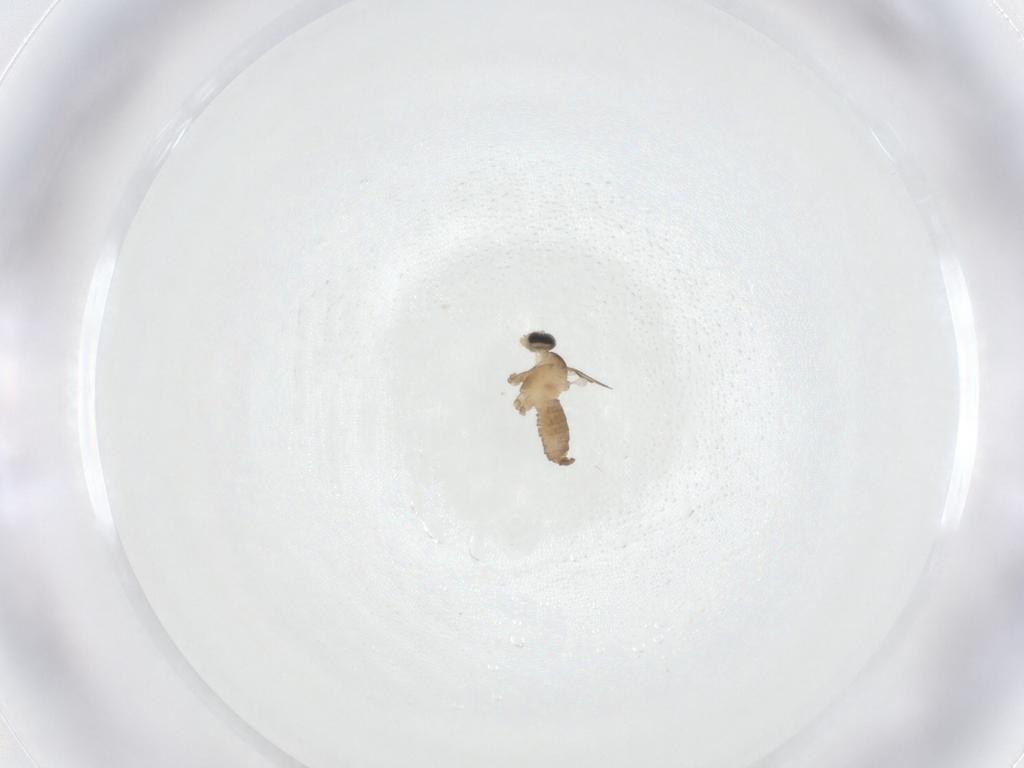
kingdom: Animalia
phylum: Arthropoda
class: Insecta
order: Diptera
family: Cecidomyiidae
